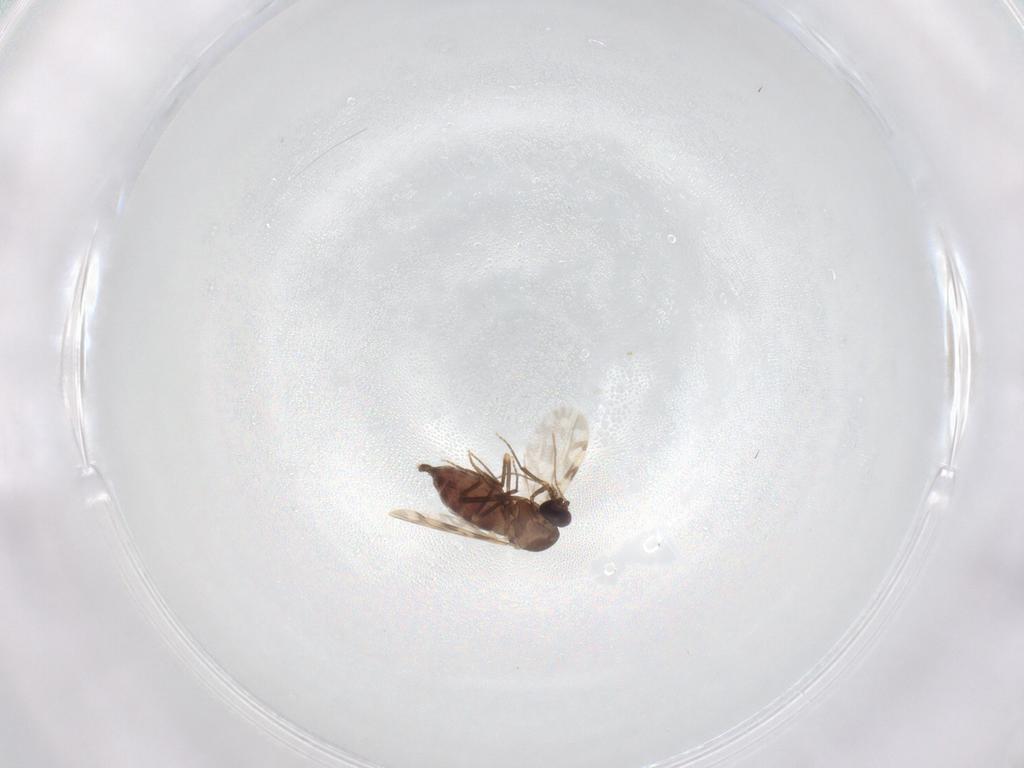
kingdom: Animalia
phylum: Arthropoda
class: Insecta
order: Diptera
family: Ceratopogonidae
